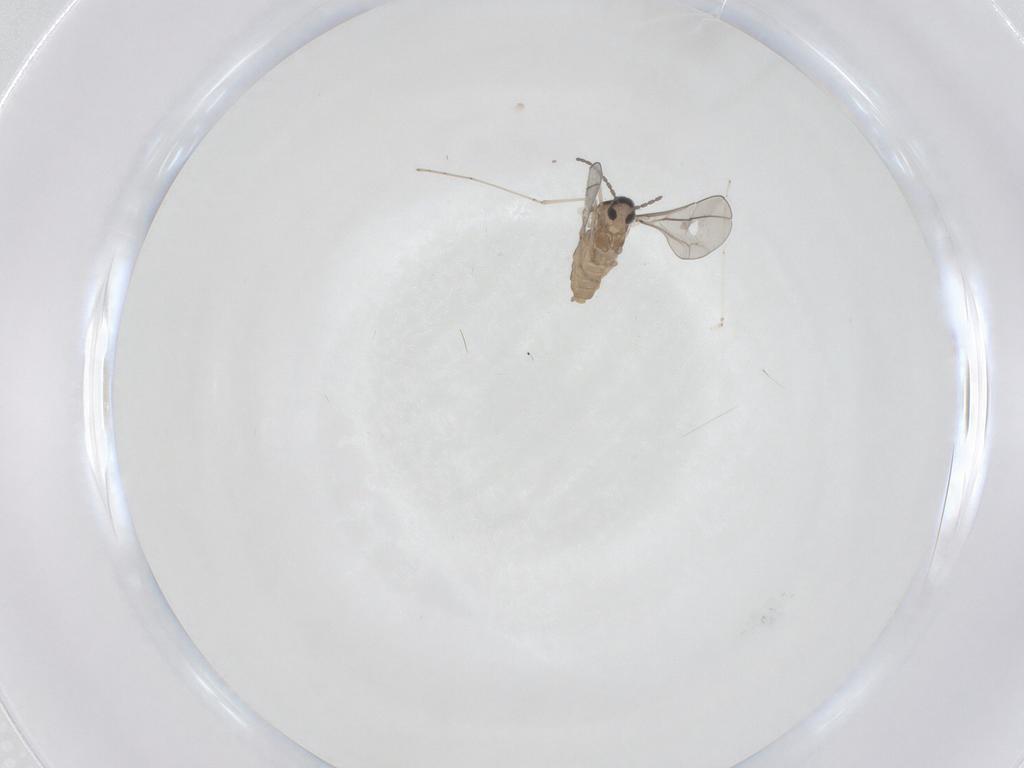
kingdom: Animalia
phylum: Arthropoda
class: Insecta
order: Diptera
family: Cecidomyiidae
